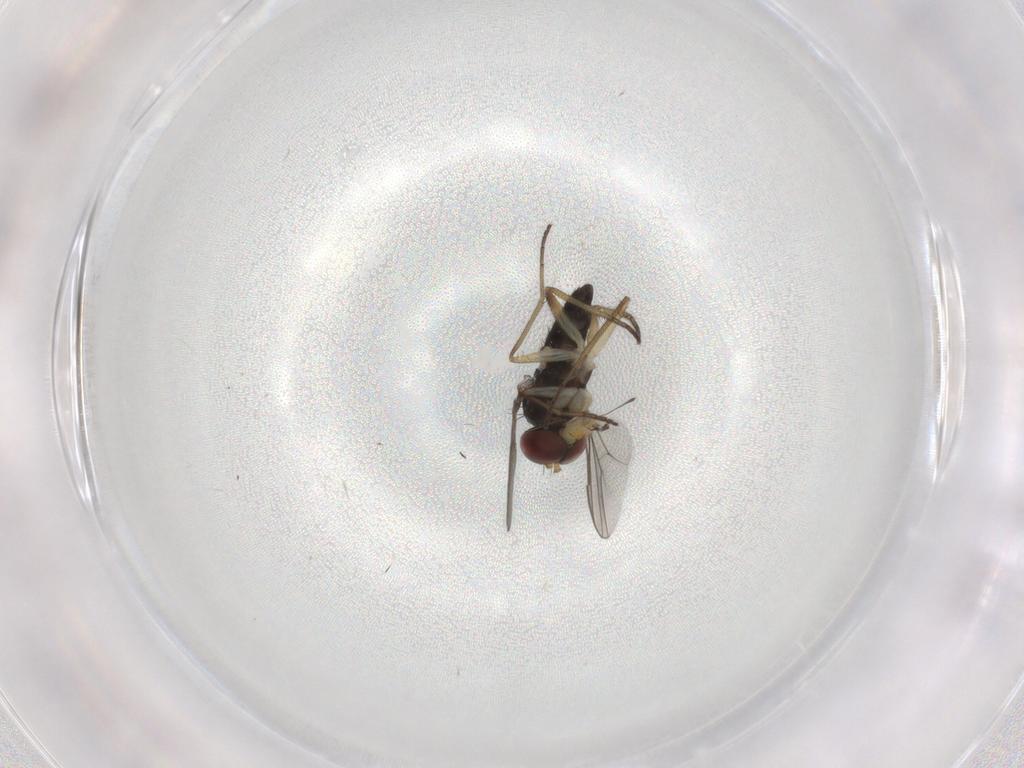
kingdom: Animalia
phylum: Arthropoda
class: Insecta
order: Diptera
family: Dolichopodidae
